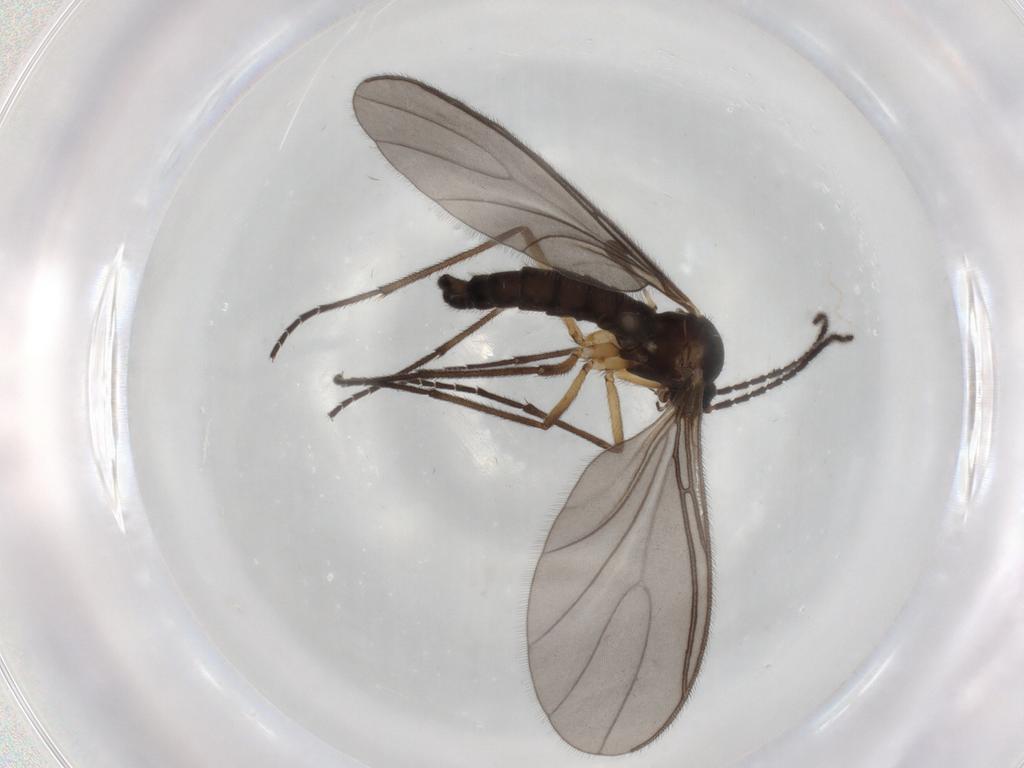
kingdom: Animalia
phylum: Arthropoda
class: Insecta
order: Diptera
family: Sciaridae
